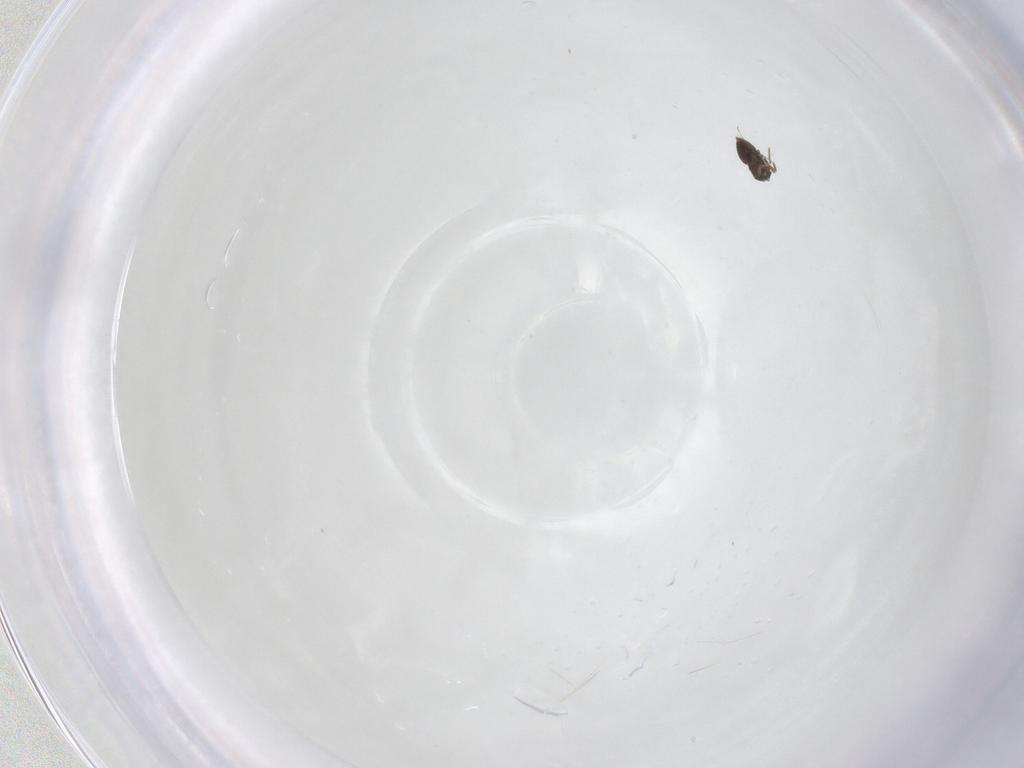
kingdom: Animalia
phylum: Arthropoda
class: Insecta
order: Hymenoptera
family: Mymaridae
